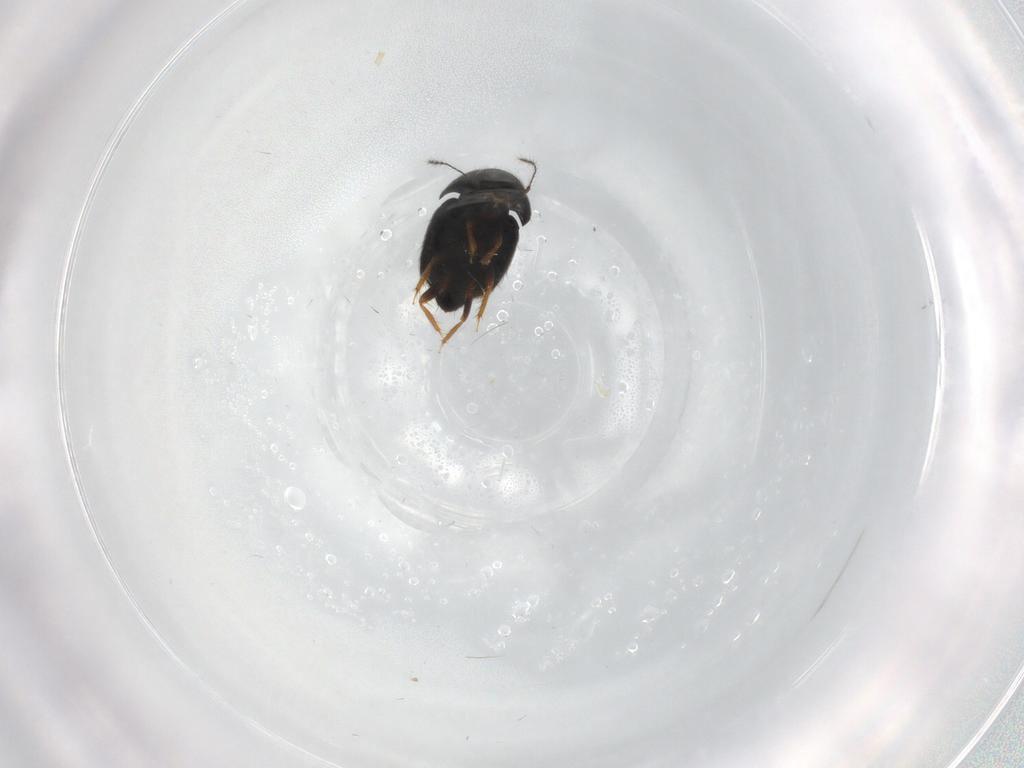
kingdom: Animalia
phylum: Arthropoda
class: Insecta
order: Coleoptera
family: Ptiliidae
